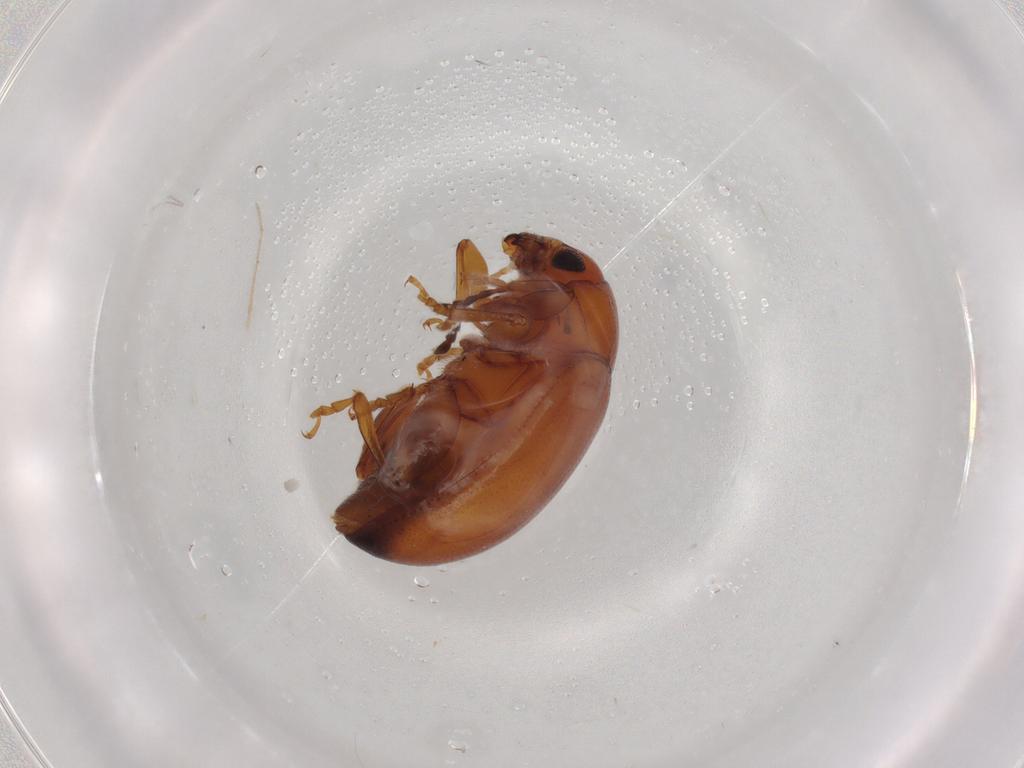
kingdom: Animalia
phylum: Arthropoda
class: Insecta
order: Coleoptera
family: Chrysomelidae
